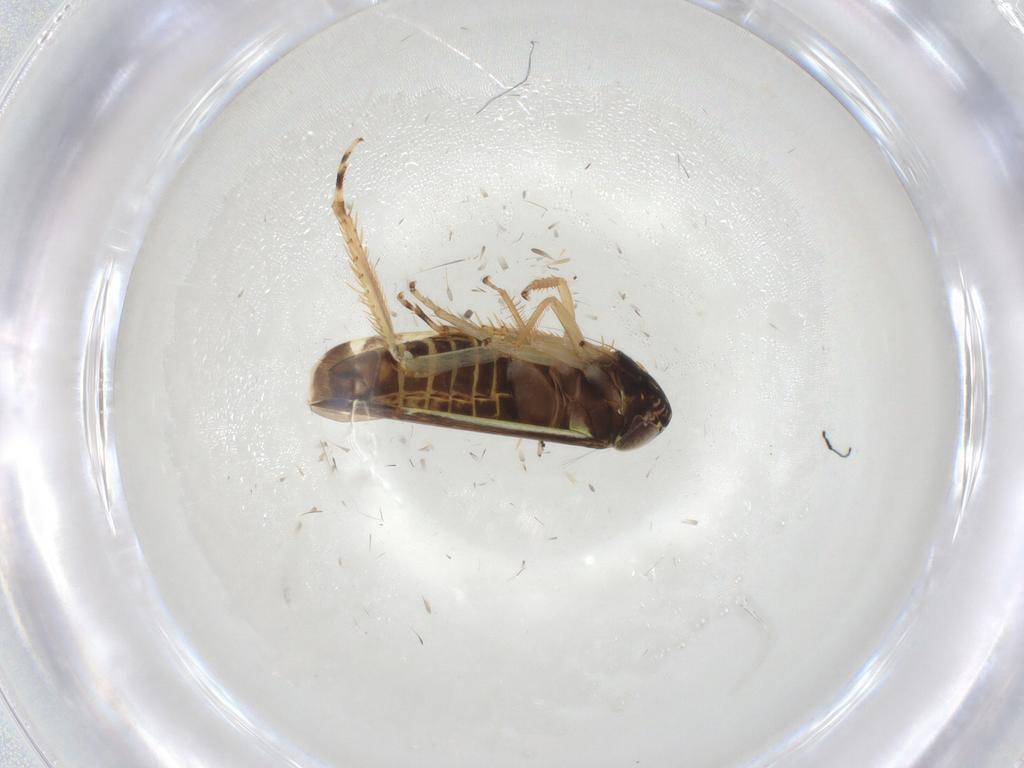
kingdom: Animalia
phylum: Arthropoda
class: Insecta
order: Hemiptera
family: Cicadellidae
